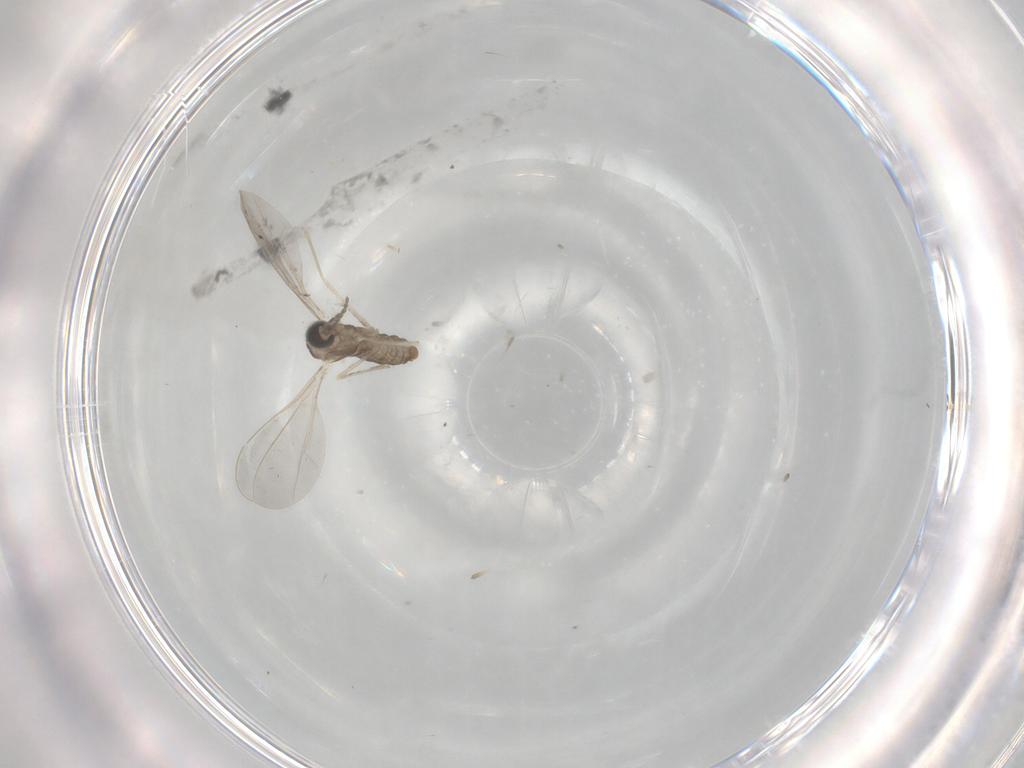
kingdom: Animalia
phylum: Arthropoda
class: Insecta
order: Diptera
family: Cecidomyiidae
